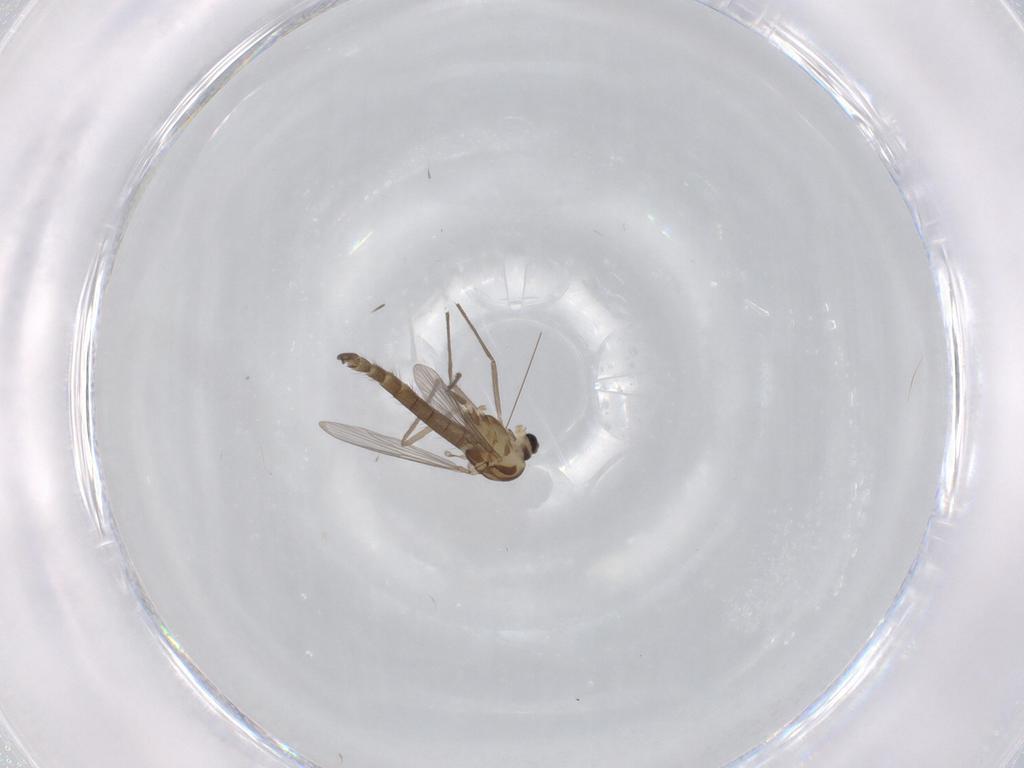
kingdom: Animalia
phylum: Arthropoda
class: Insecta
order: Diptera
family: Chironomidae
